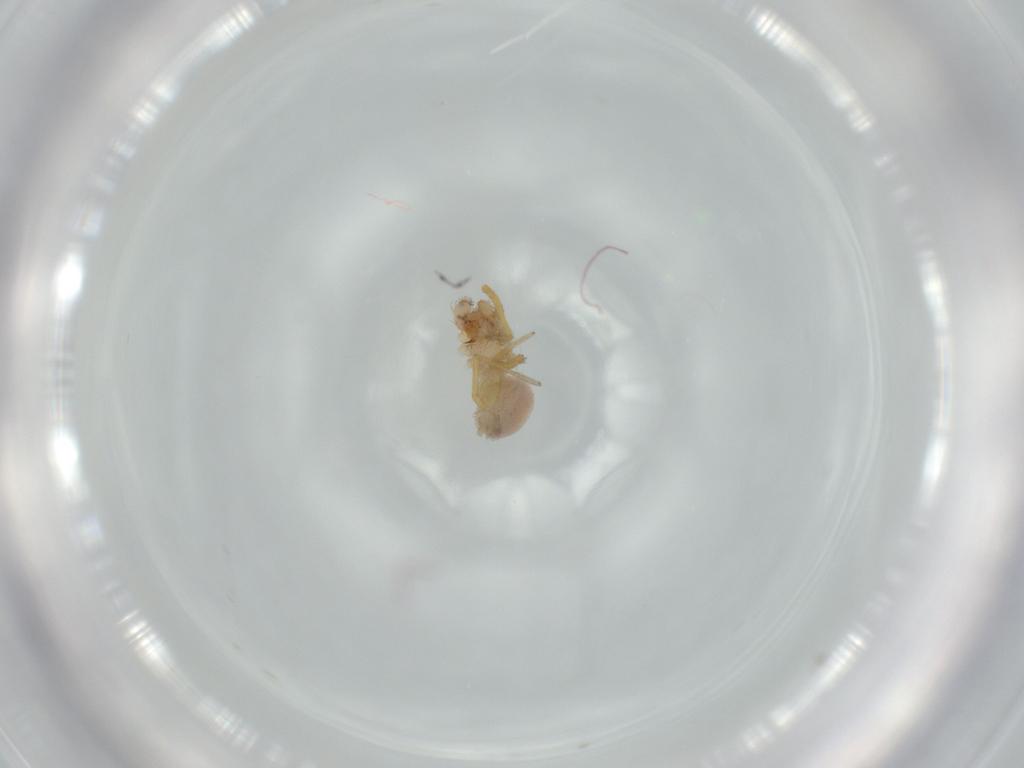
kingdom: Animalia
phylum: Arthropoda
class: Arachnida
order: Araneae
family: Oonopidae
